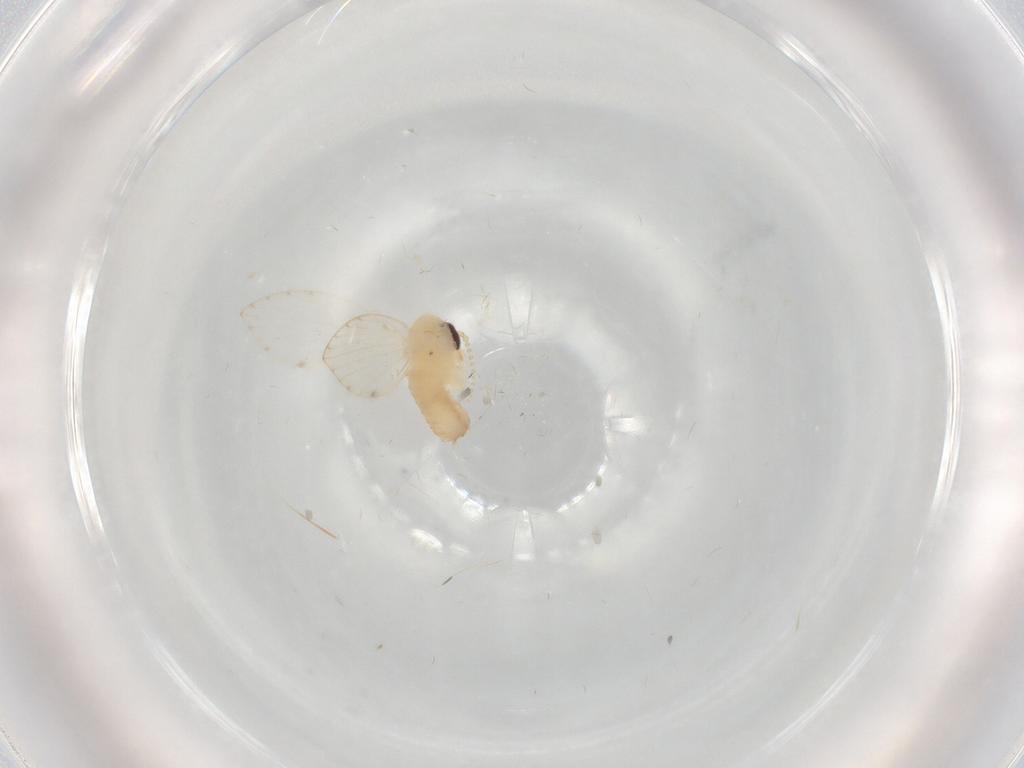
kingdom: Animalia
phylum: Arthropoda
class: Insecta
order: Diptera
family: Psychodidae
